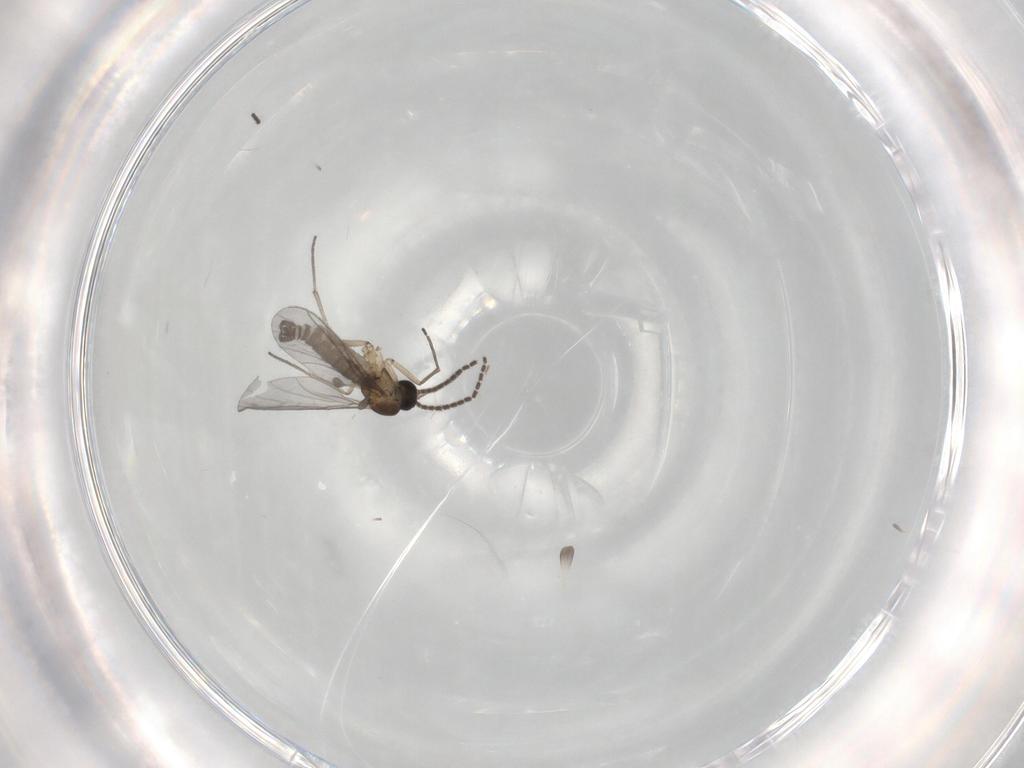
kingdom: Animalia
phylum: Arthropoda
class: Insecta
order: Diptera
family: Sciaridae
